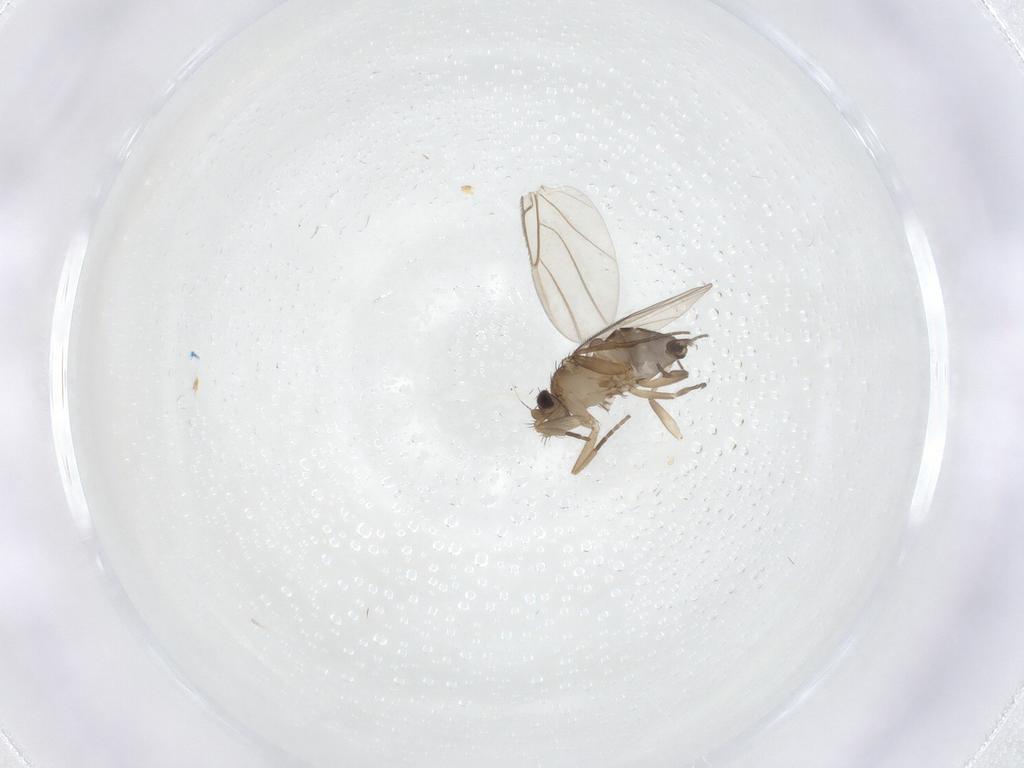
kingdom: Animalia
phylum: Arthropoda
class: Insecta
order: Diptera
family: Phoridae
